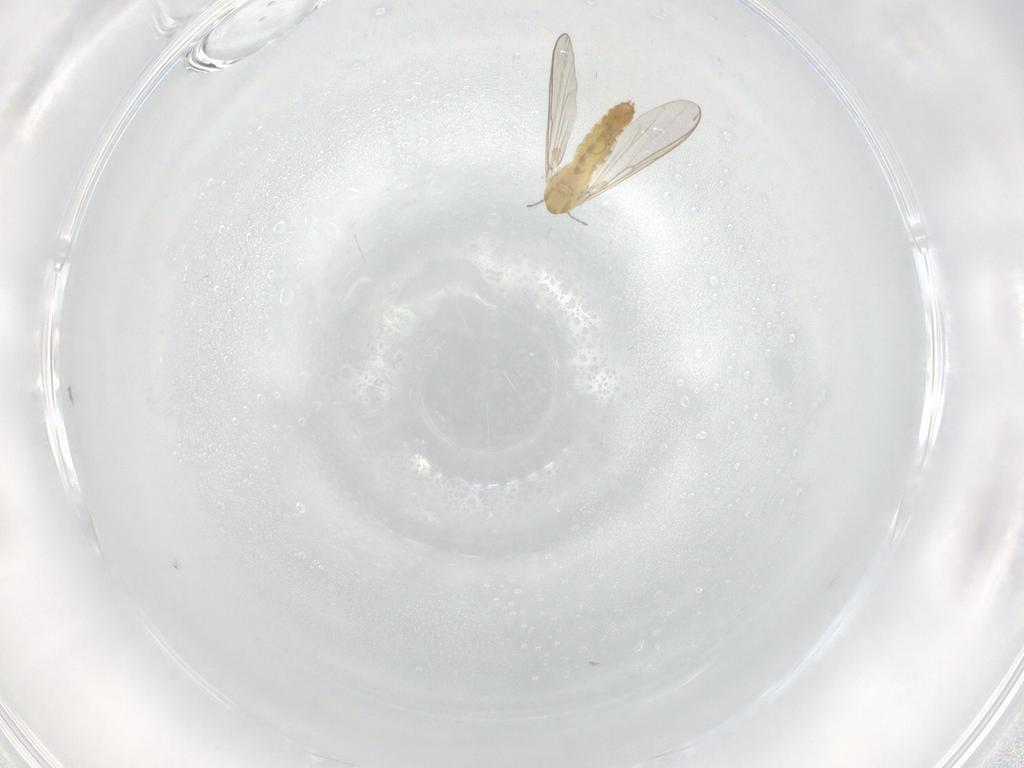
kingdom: Animalia
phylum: Arthropoda
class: Insecta
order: Diptera
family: Chironomidae
